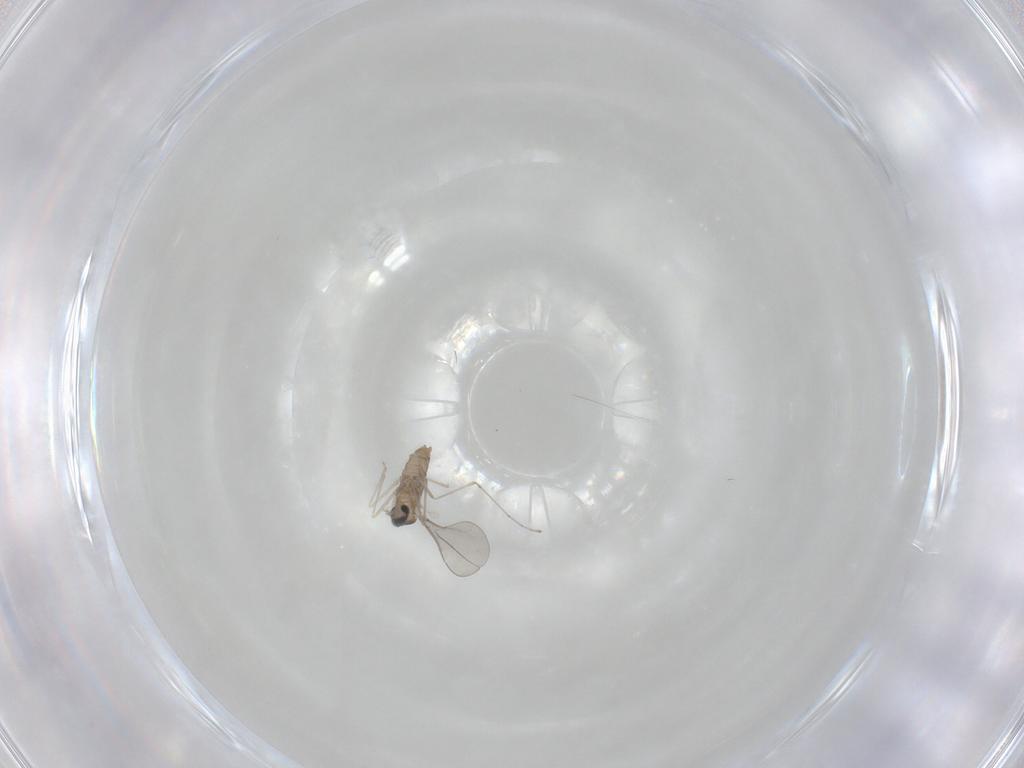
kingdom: Animalia
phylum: Arthropoda
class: Insecta
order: Diptera
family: Cecidomyiidae
